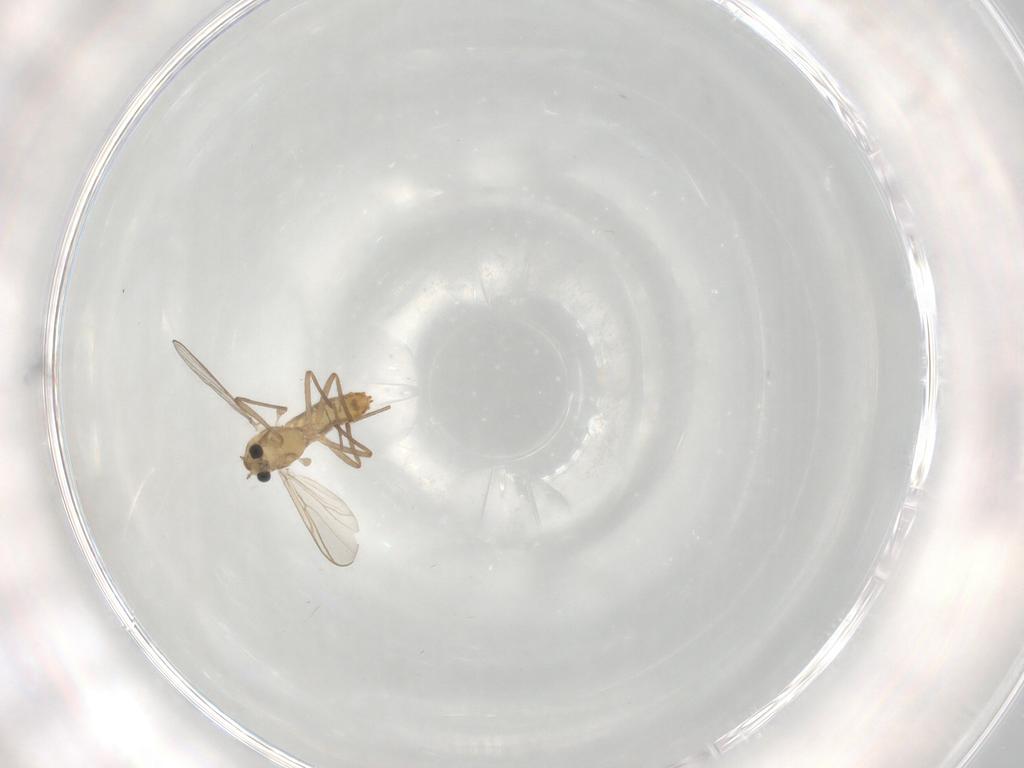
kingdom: Animalia
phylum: Arthropoda
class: Insecta
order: Diptera
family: Chironomidae
